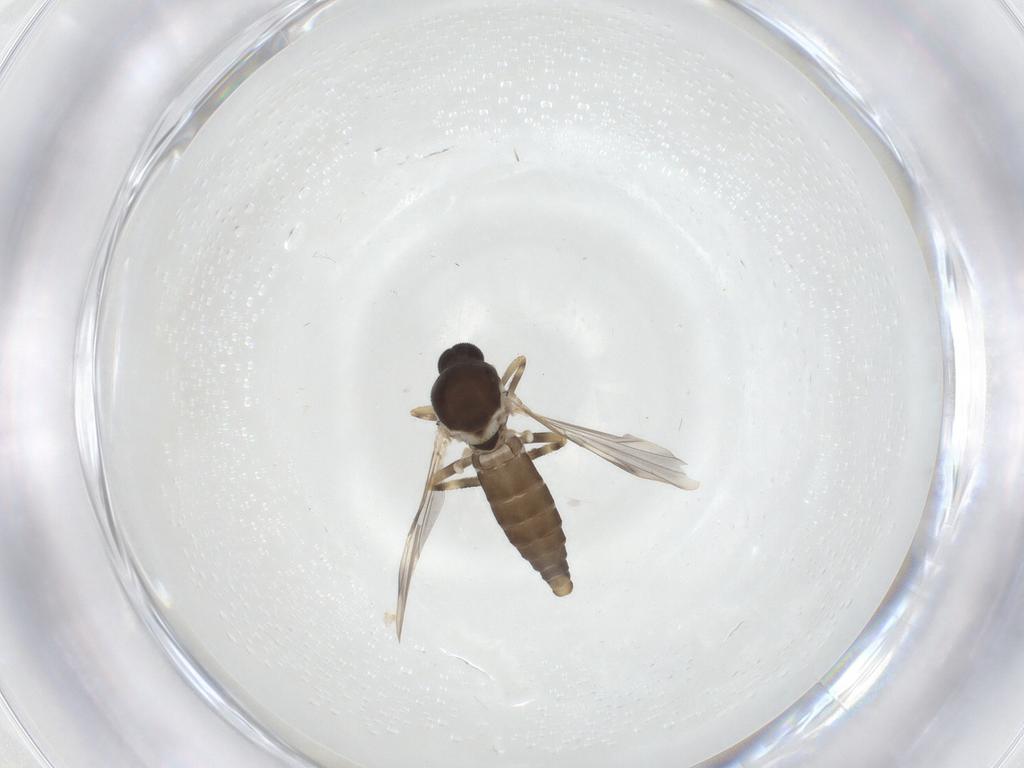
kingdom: Animalia
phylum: Arthropoda
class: Insecta
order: Diptera
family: Ceratopogonidae
